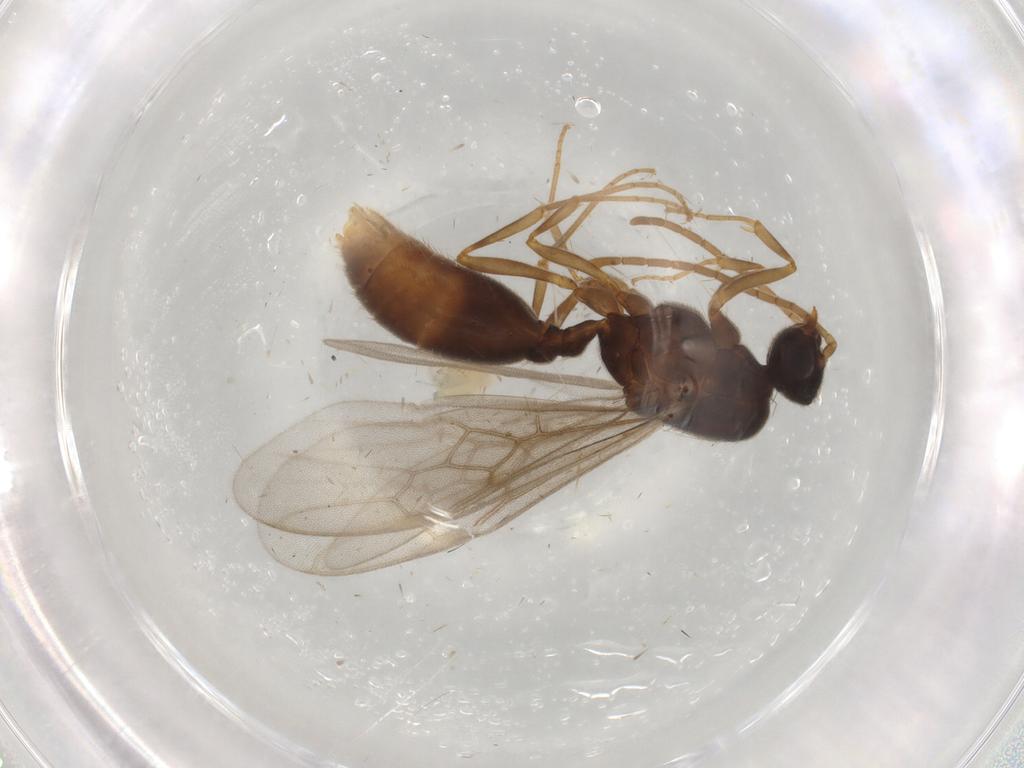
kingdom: Animalia
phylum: Arthropoda
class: Insecta
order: Hymenoptera
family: Formicidae
